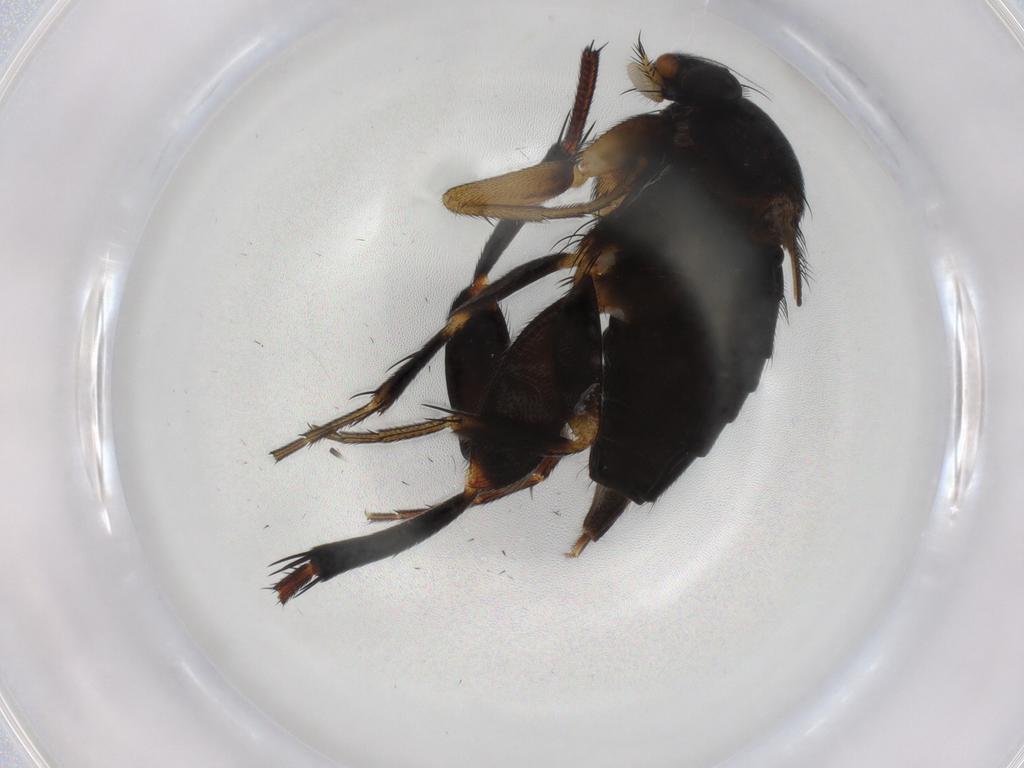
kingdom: Animalia
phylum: Arthropoda
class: Insecta
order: Diptera
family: Phoridae
